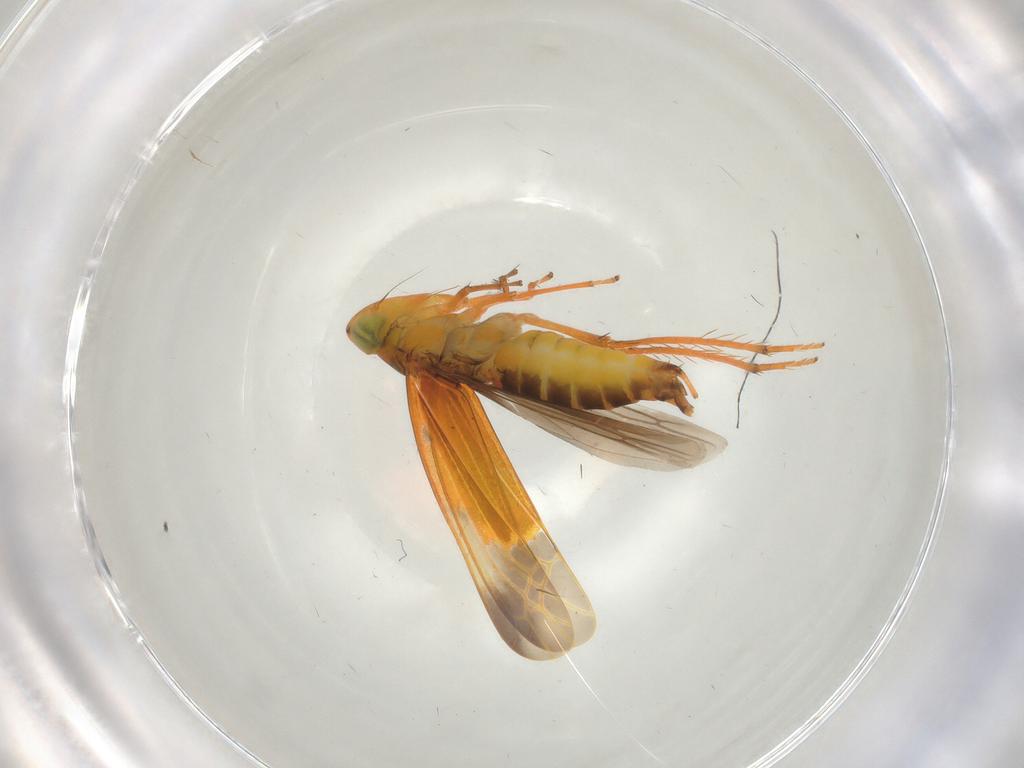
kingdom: Animalia
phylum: Arthropoda
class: Insecta
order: Hemiptera
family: Cicadellidae
